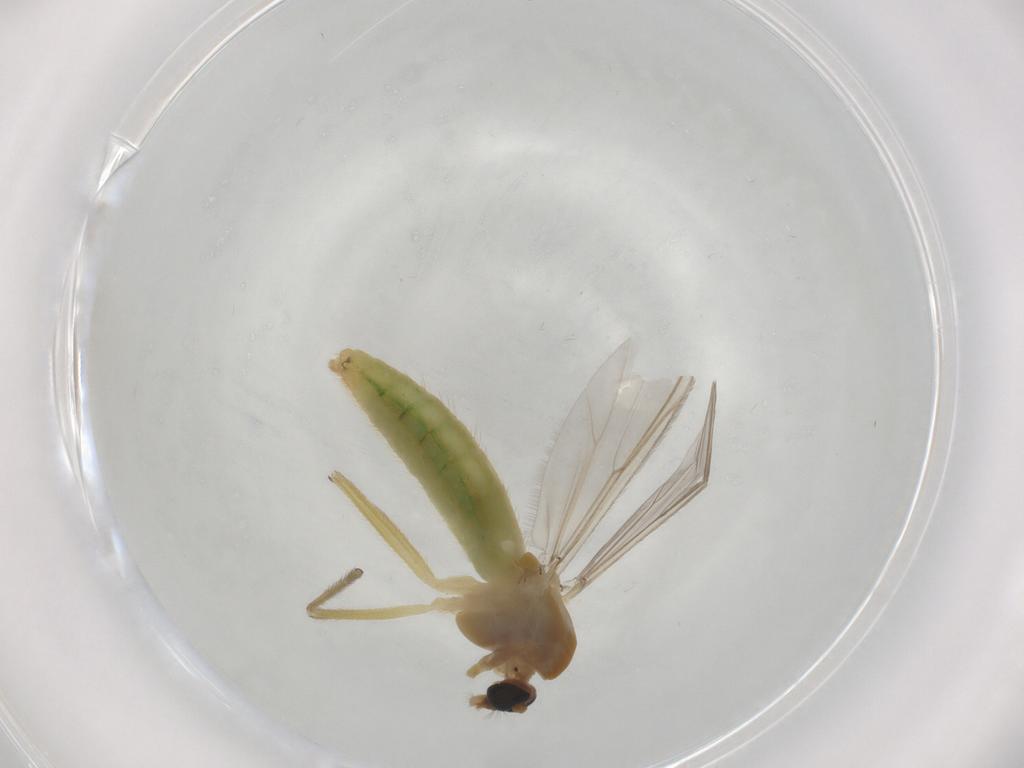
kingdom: Animalia
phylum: Arthropoda
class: Insecta
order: Diptera
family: Chironomidae
